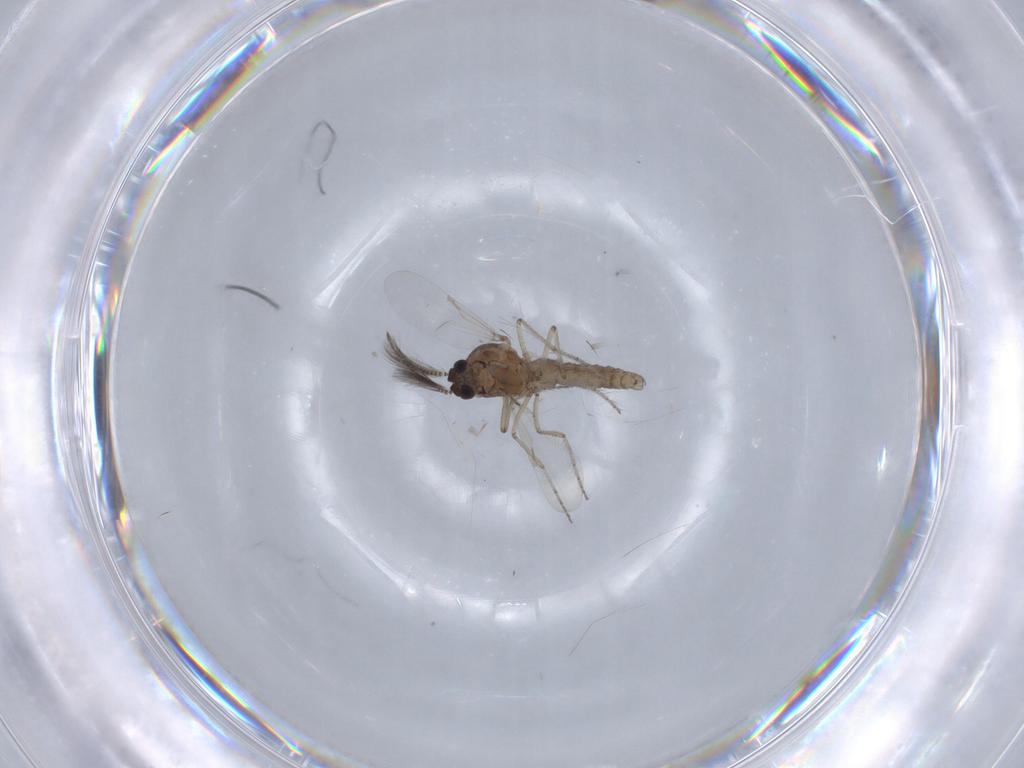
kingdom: Animalia
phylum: Arthropoda
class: Insecta
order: Diptera
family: Ceratopogonidae
